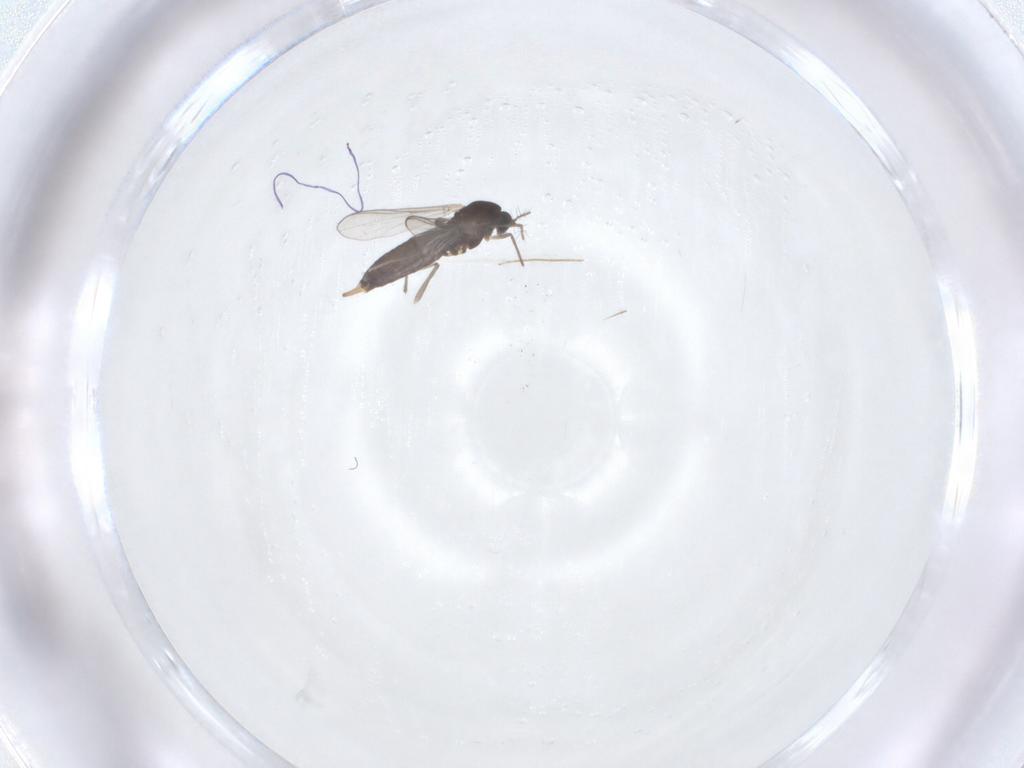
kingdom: Animalia
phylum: Arthropoda
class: Insecta
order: Diptera
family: Chironomidae
